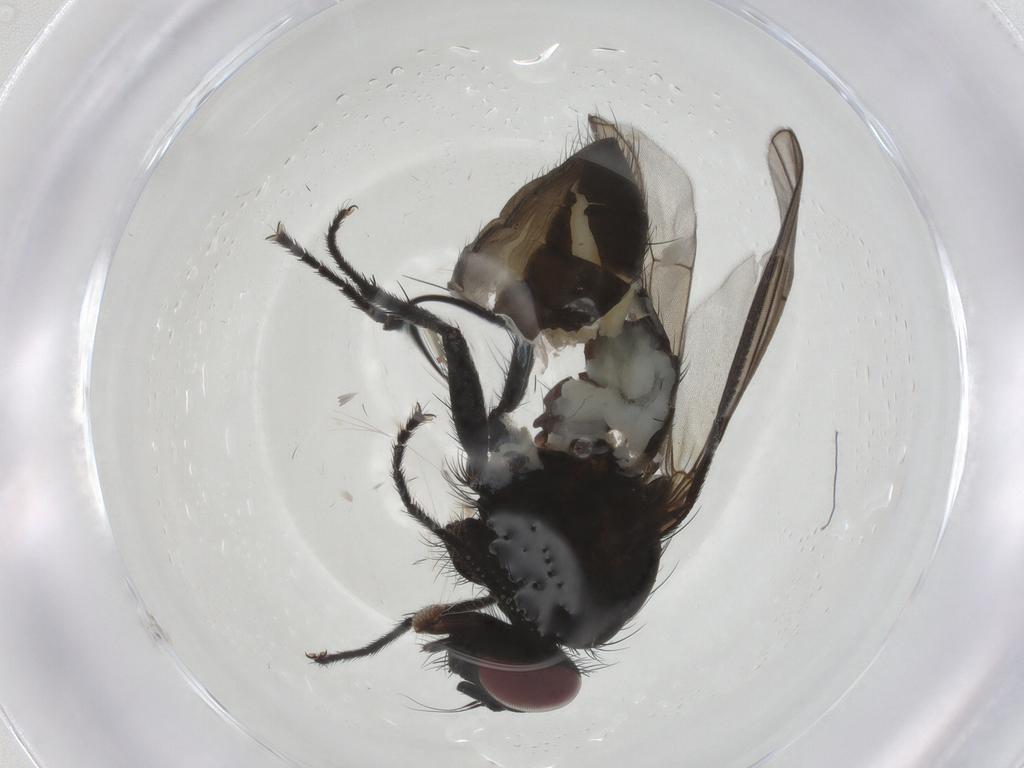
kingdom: Animalia
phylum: Arthropoda
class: Insecta
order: Diptera
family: Muscidae
